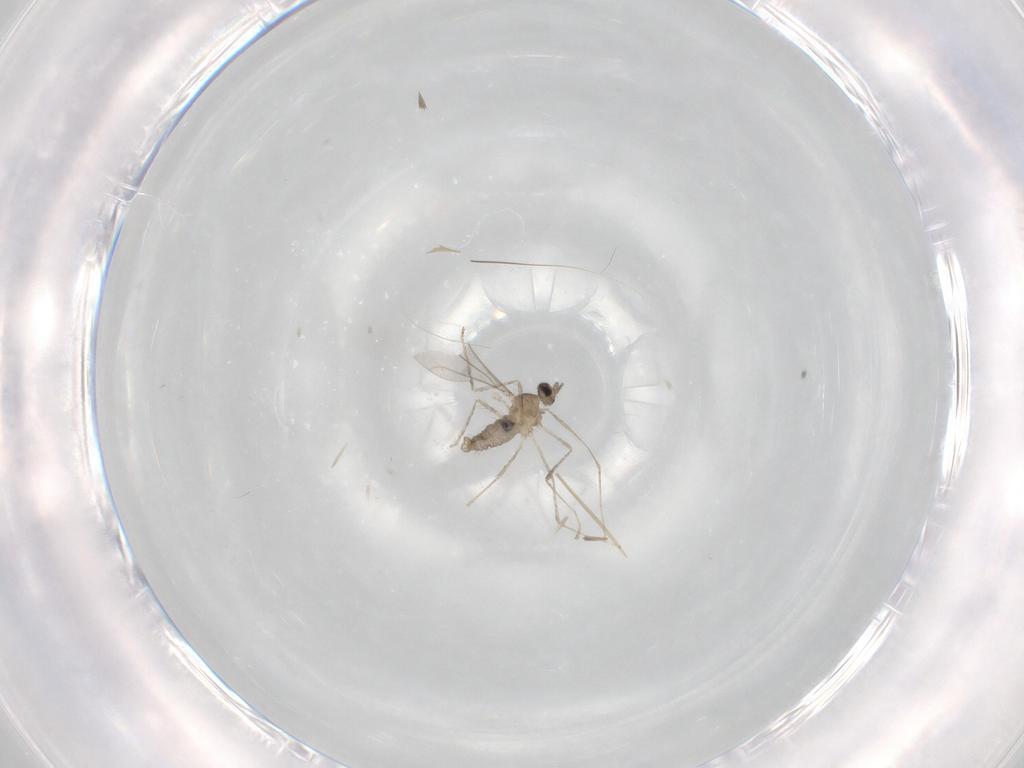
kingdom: Animalia
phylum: Arthropoda
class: Insecta
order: Diptera
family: Cecidomyiidae
